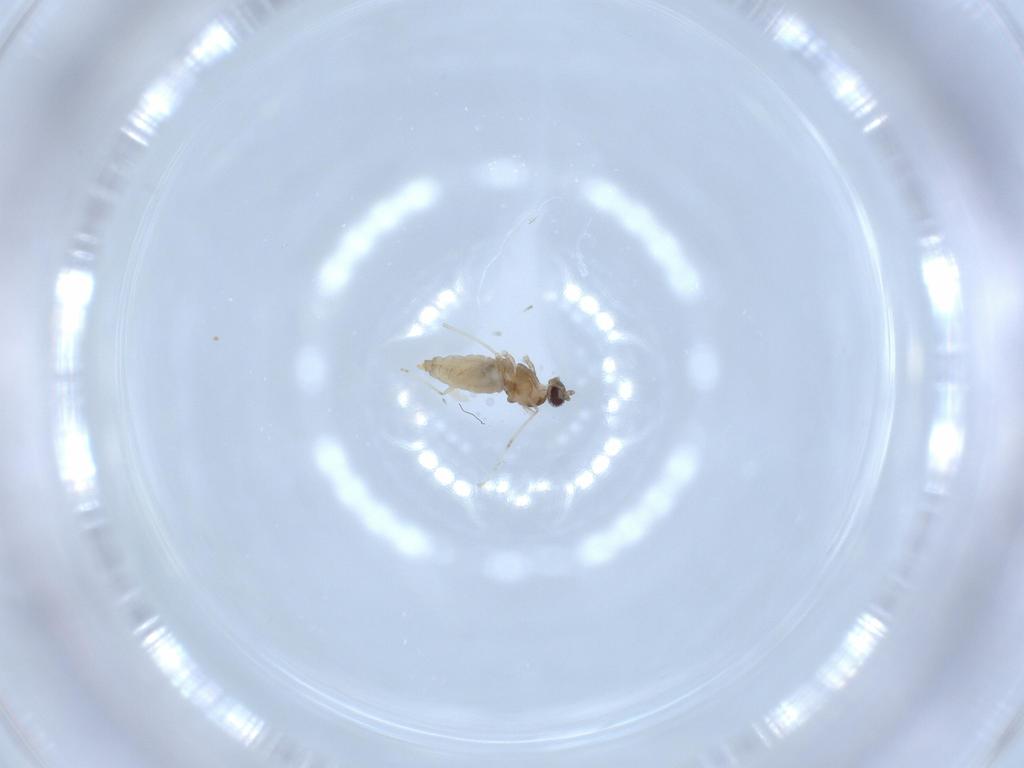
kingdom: Animalia
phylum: Arthropoda
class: Insecta
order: Diptera
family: Cecidomyiidae
